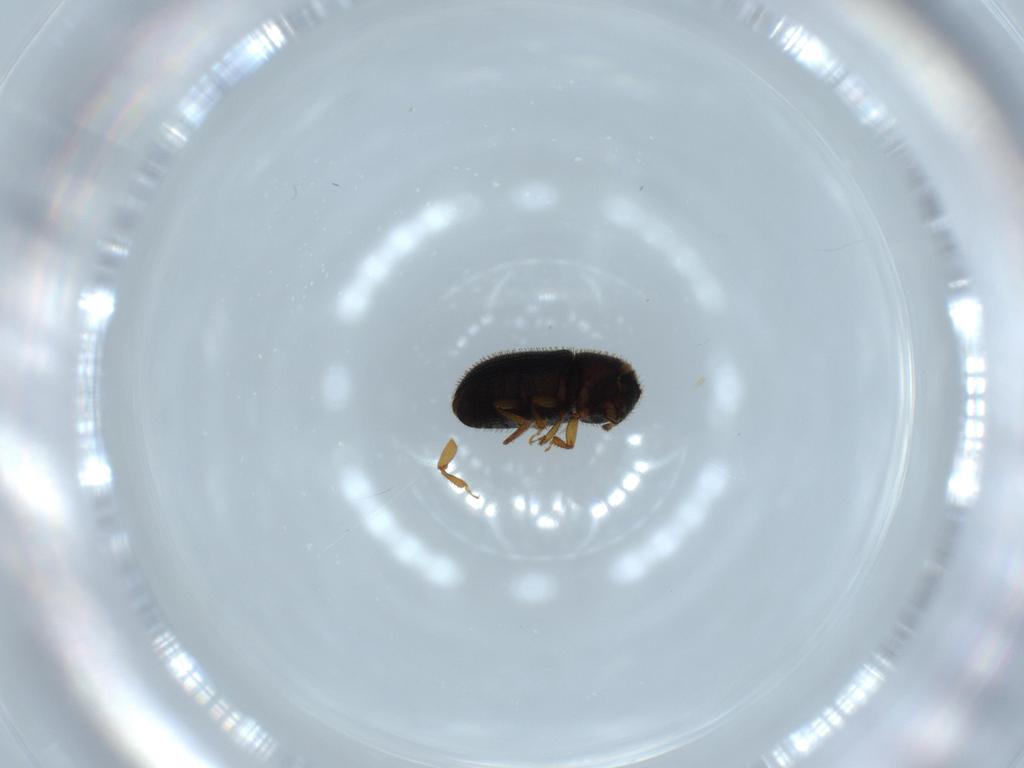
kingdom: Animalia
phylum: Arthropoda
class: Insecta
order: Coleoptera
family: Curculionidae
